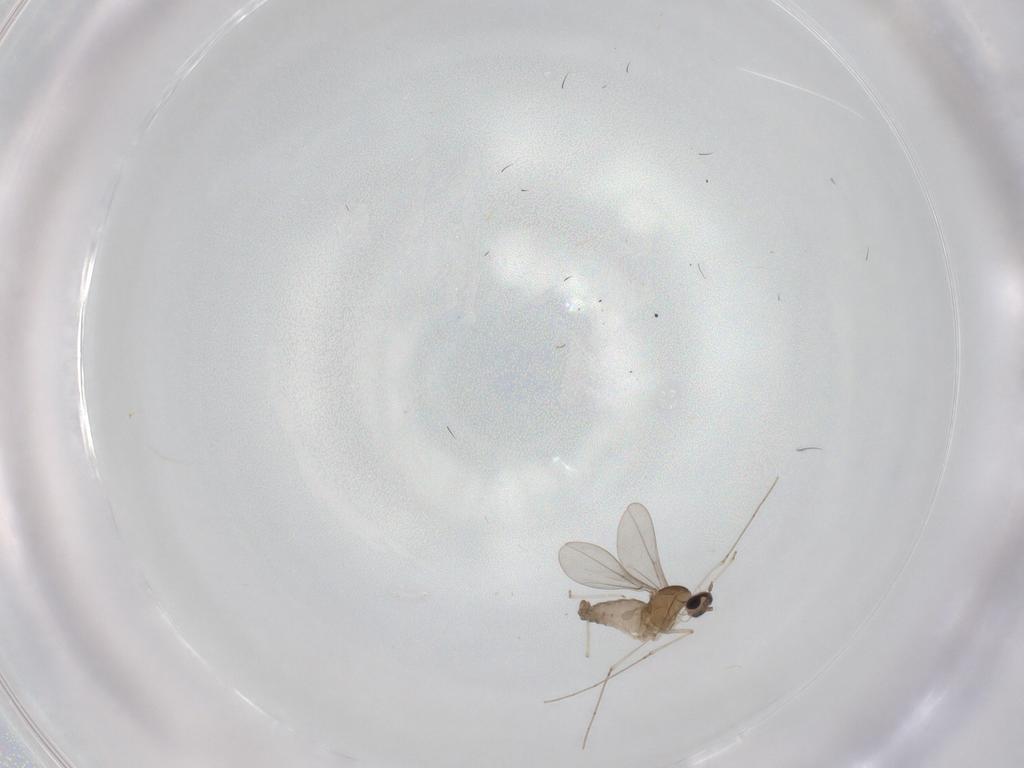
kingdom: Animalia
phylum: Arthropoda
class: Insecta
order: Diptera
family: Cecidomyiidae
